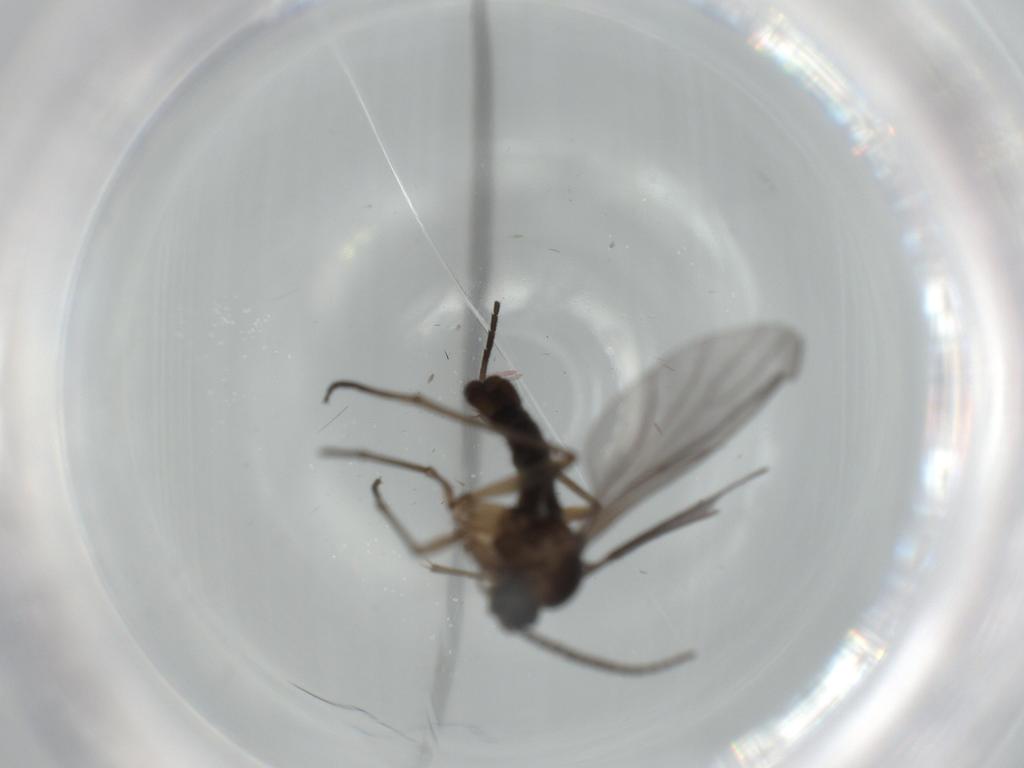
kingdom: Animalia
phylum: Arthropoda
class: Insecta
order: Diptera
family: Sciaridae
